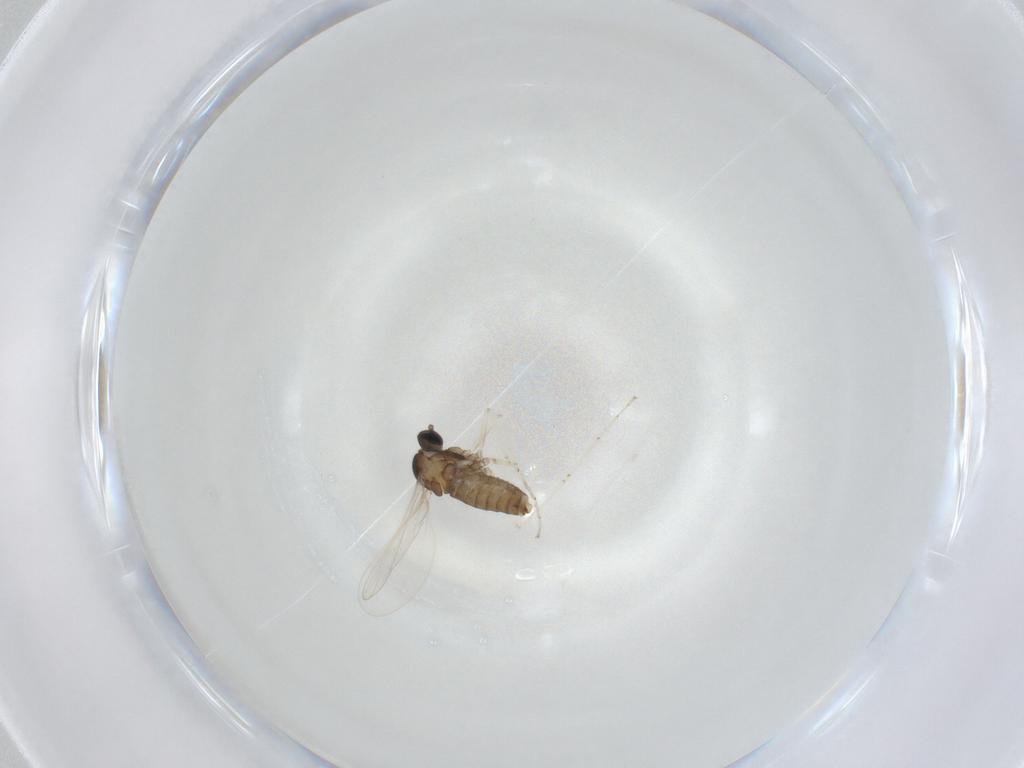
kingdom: Animalia
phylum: Arthropoda
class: Insecta
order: Diptera
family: Cecidomyiidae
